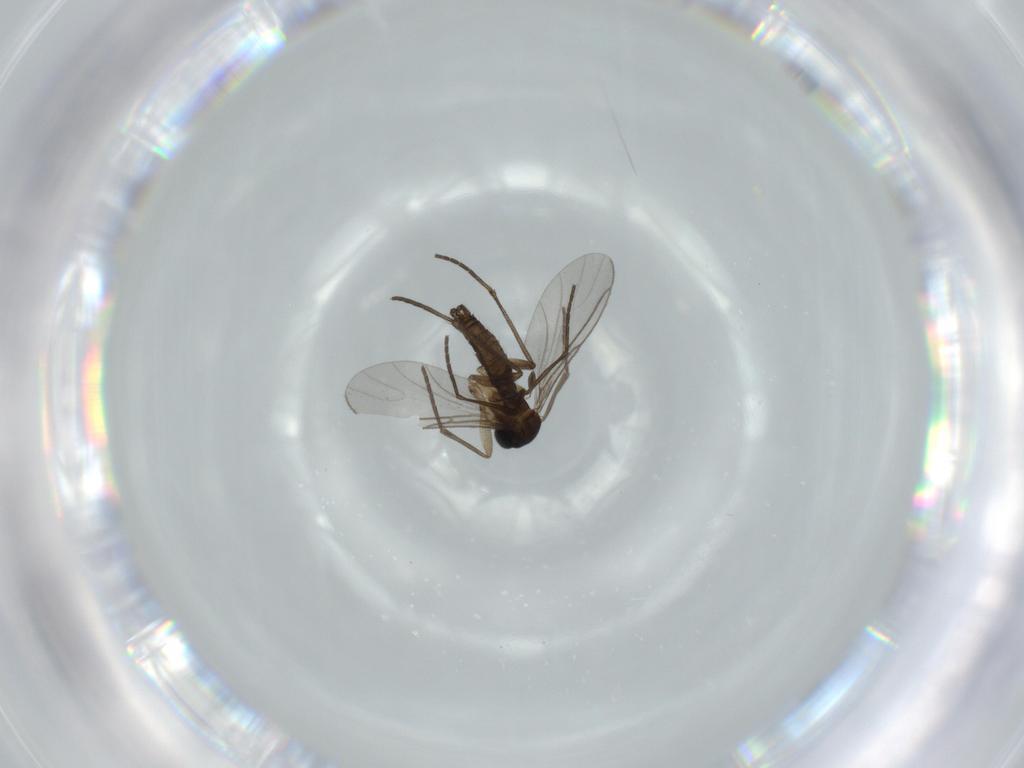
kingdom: Animalia
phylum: Arthropoda
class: Insecta
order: Diptera
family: Sciaridae
